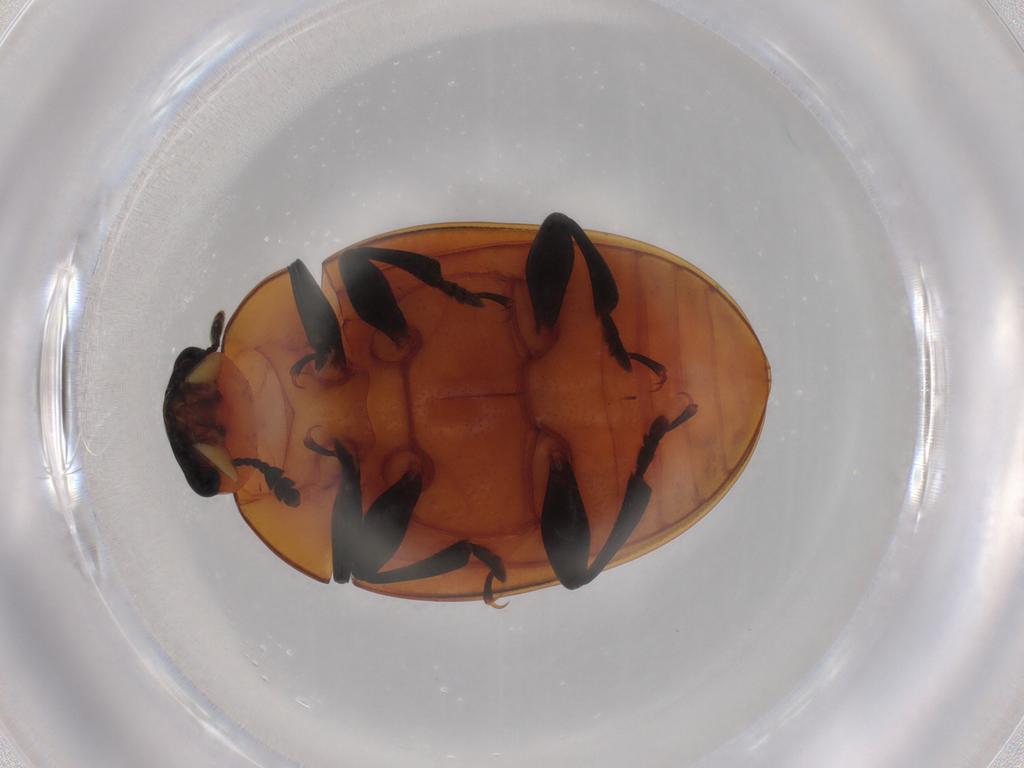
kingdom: Animalia
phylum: Arthropoda
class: Insecta
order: Coleoptera
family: Erotylidae
